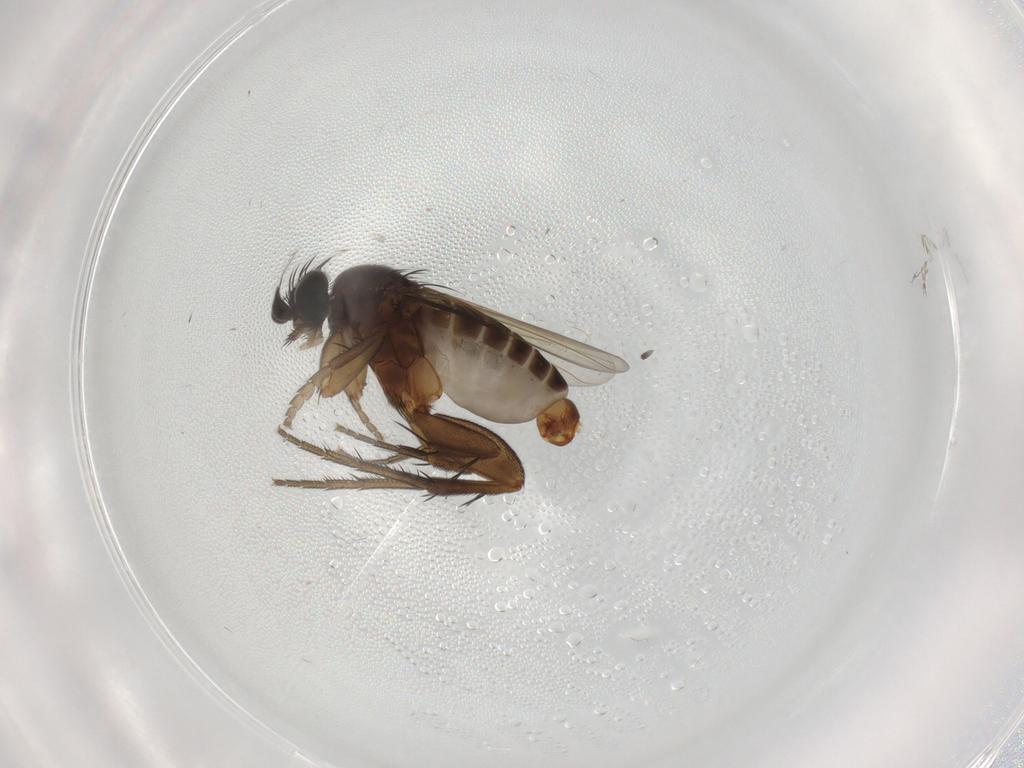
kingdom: Animalia
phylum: Arthropoda
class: Insecta
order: Diptera
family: Phoridae
